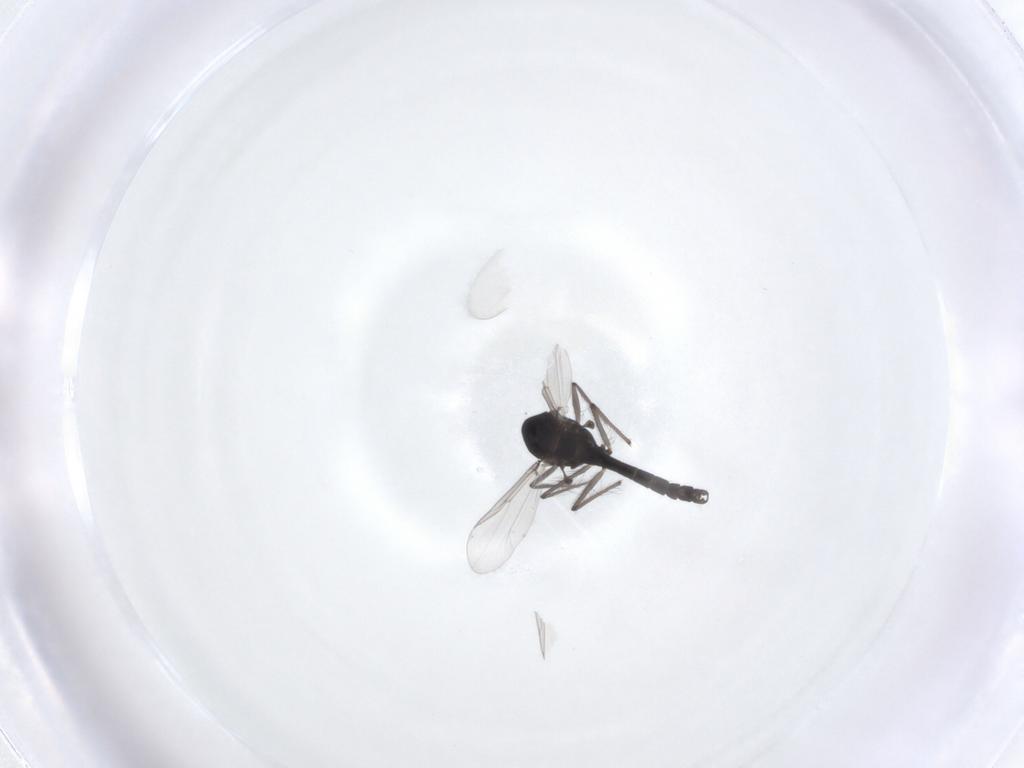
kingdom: Animalia
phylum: Arthropoda
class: Insecta
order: Diptera
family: Chironomidae
